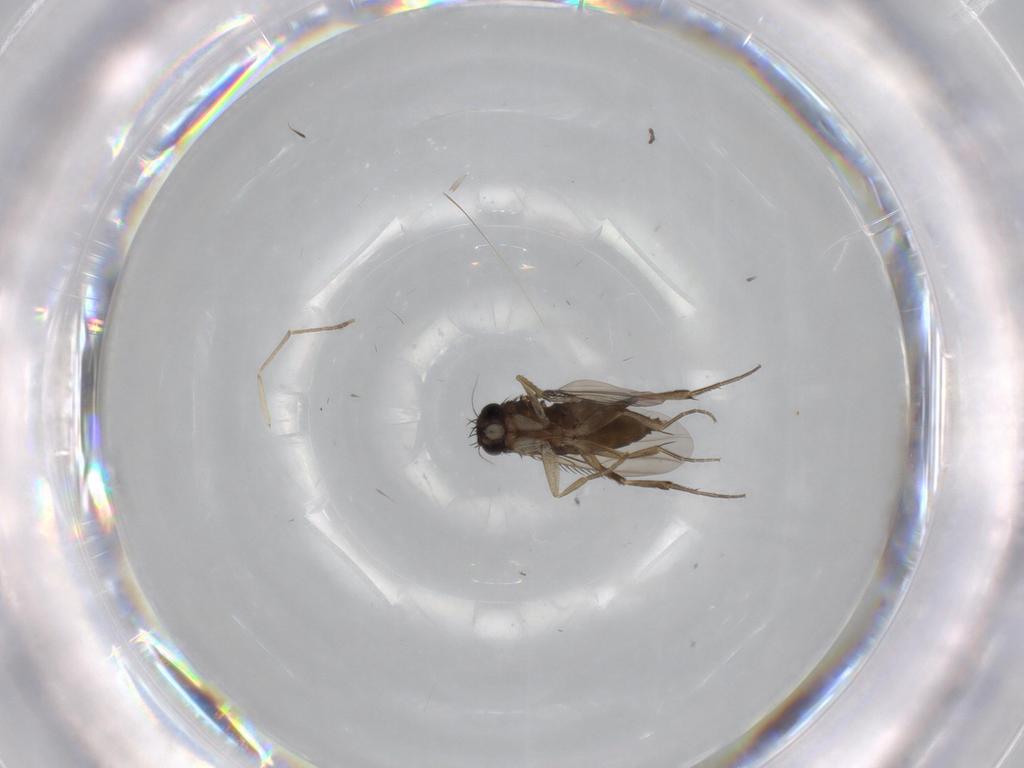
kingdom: Animalia
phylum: Arthropoda
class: Insecta
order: Diptera
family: Phoridae
